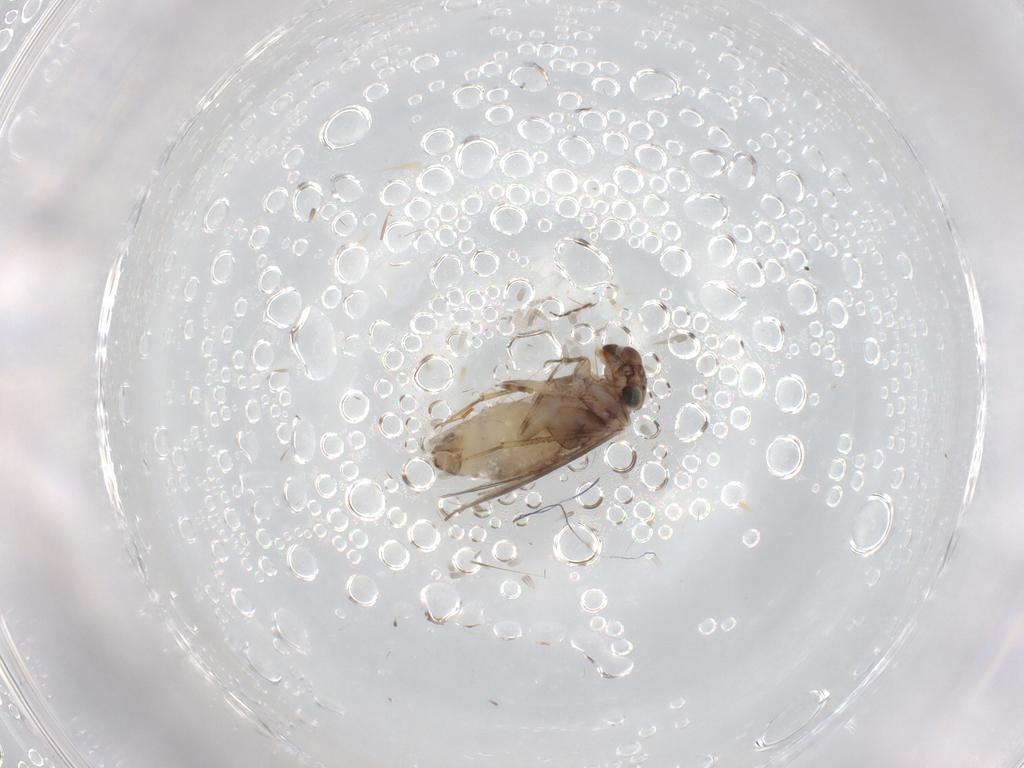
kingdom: Animalia
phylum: Arthropoda
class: Insecta
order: Psocodea
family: Lepidopsocidae
